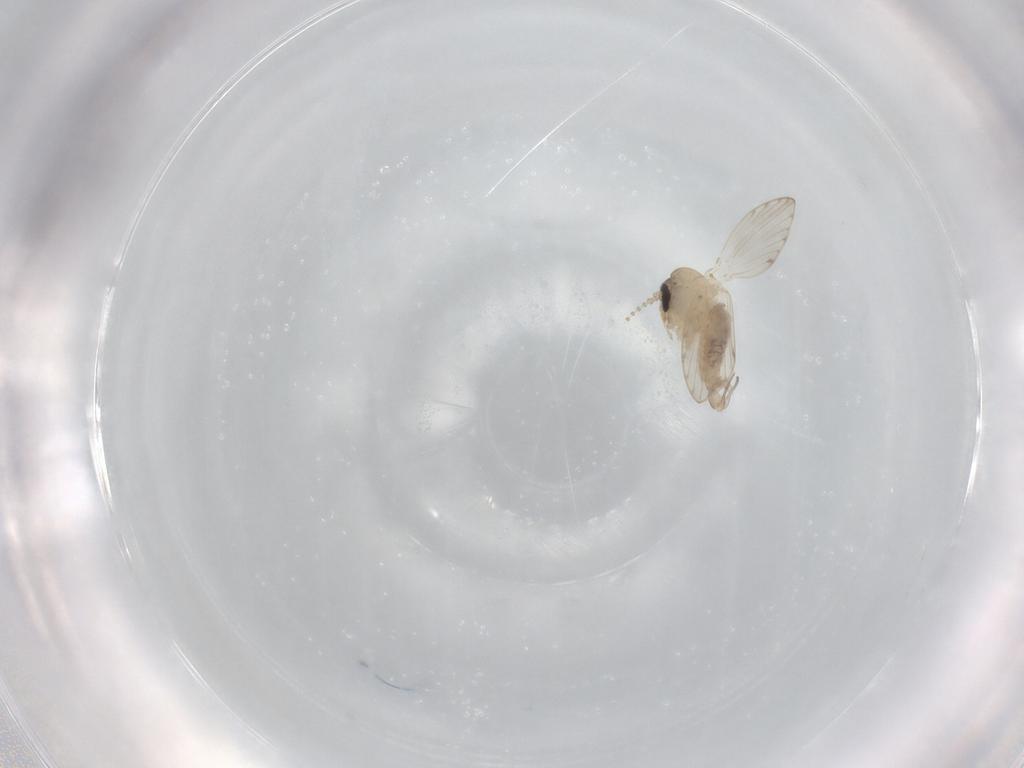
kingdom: Animalia
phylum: Arthropoda
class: Insecta
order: Diptera
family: Psychodidae
